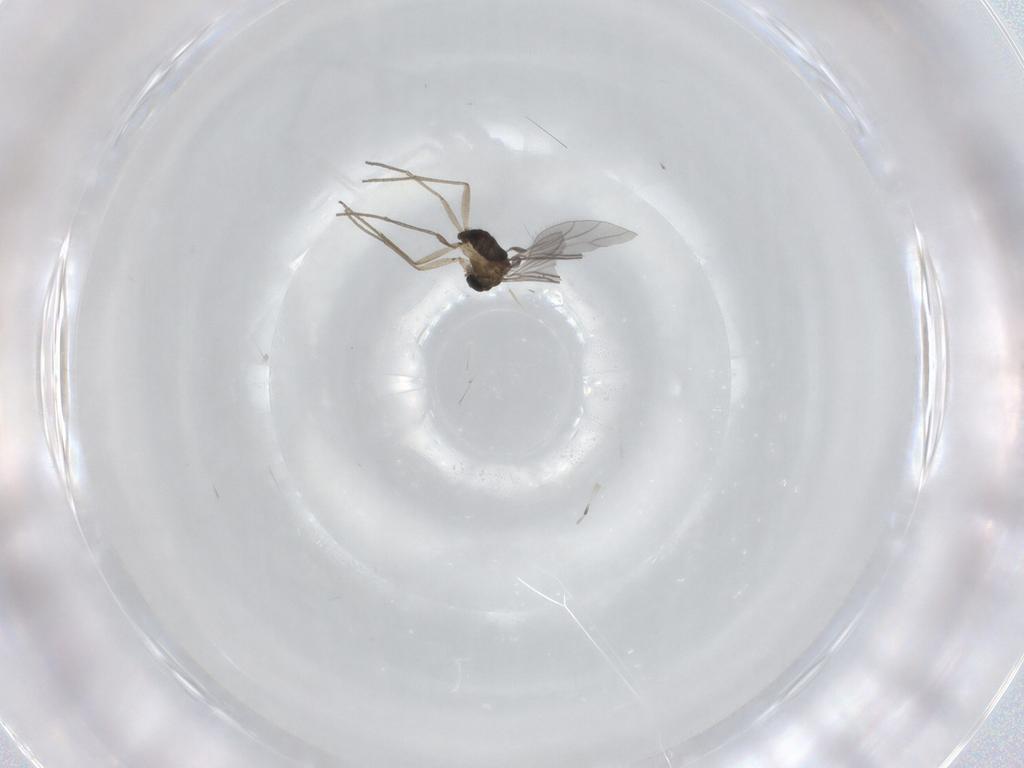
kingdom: Animalia
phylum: Arthropoda
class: Insecta
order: Diptera
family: Sciaridae
